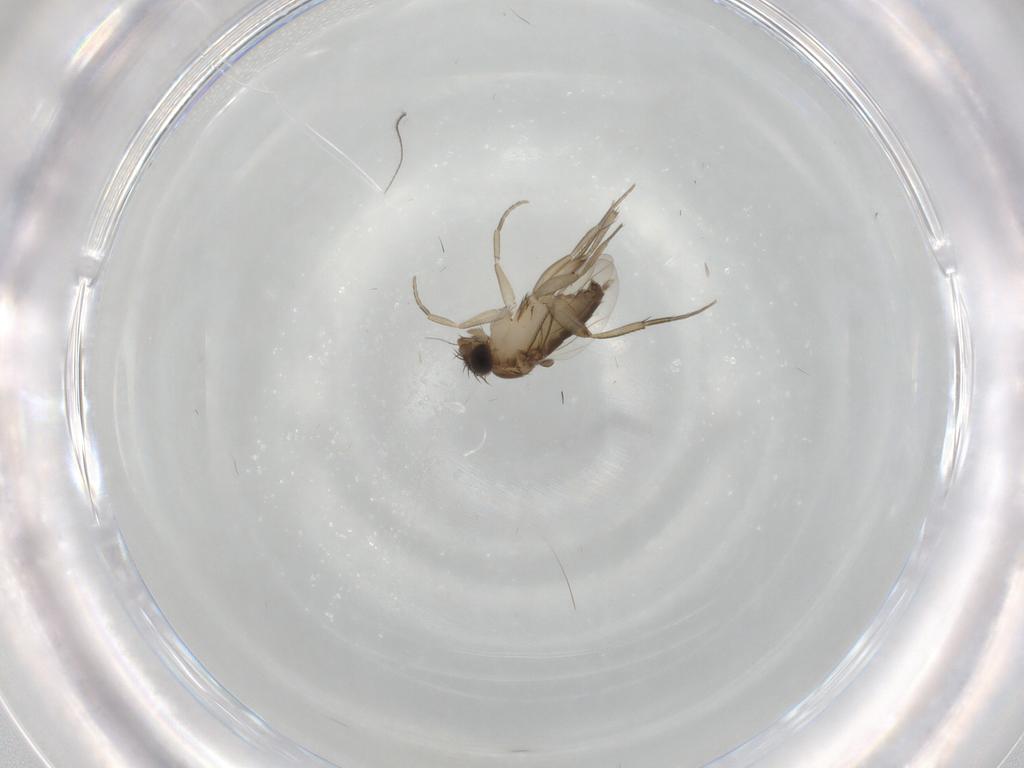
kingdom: Animalia
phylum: Arthropoda
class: Insecta
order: Diptera
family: Phoridae
